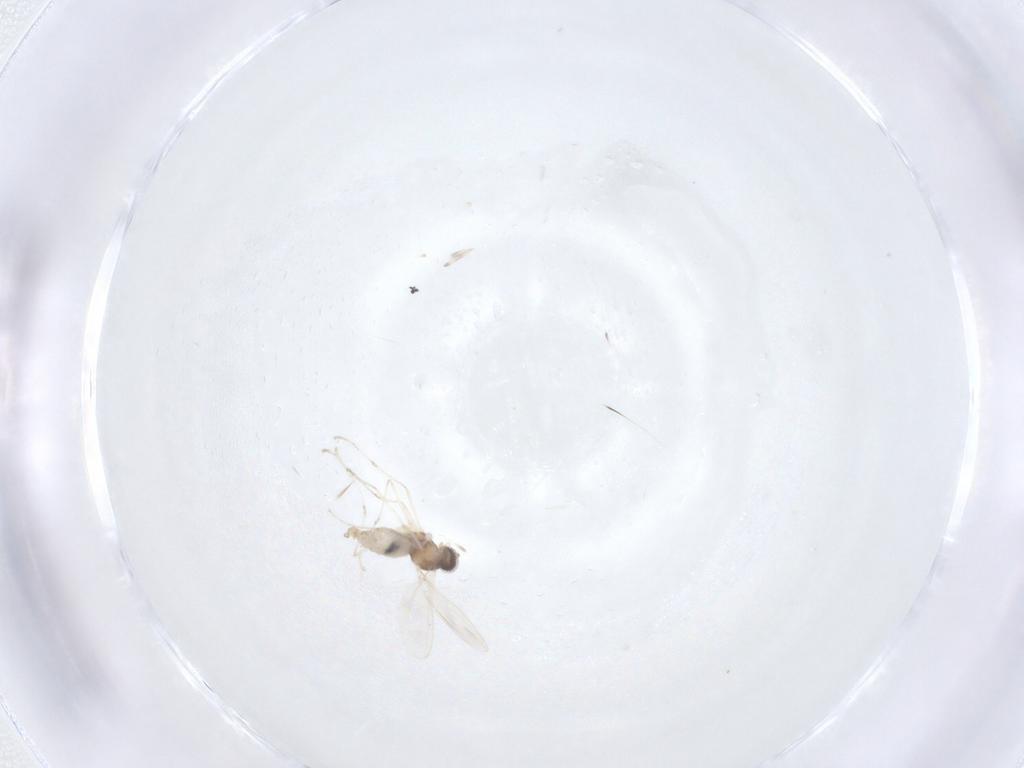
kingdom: Animalia
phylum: Arthropoda
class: Insecta
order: Diptera
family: Cecidomyiidae
